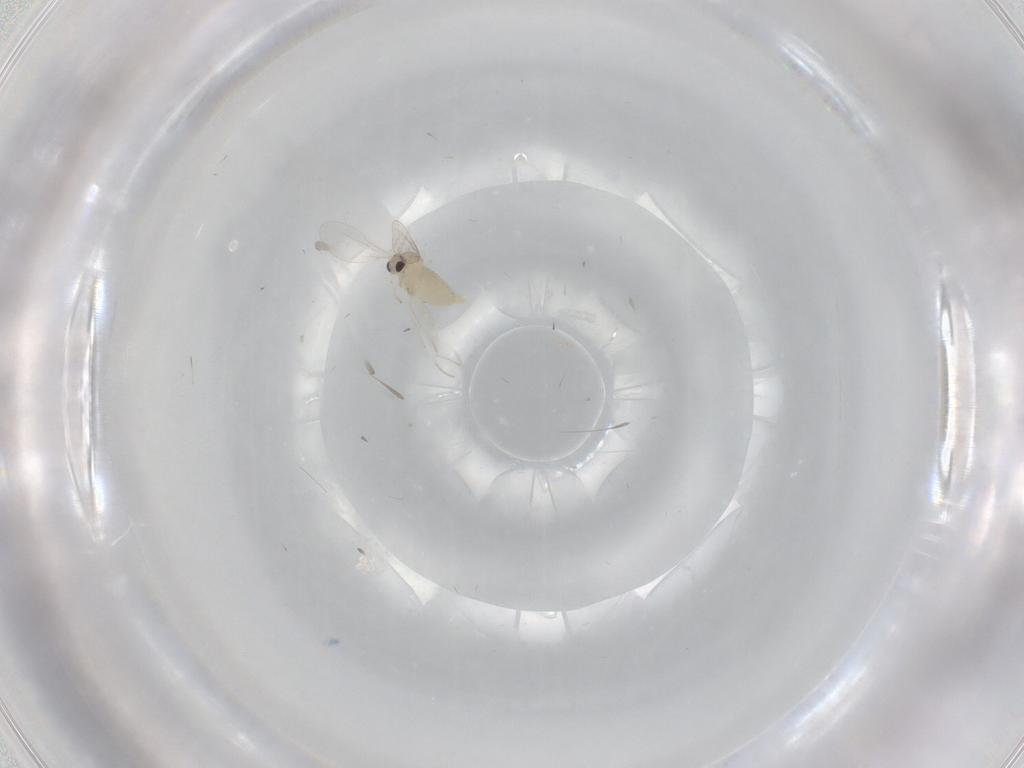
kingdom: Animalia
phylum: Arthropoda
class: Insecta
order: Diptera
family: Cecidomyiidae
